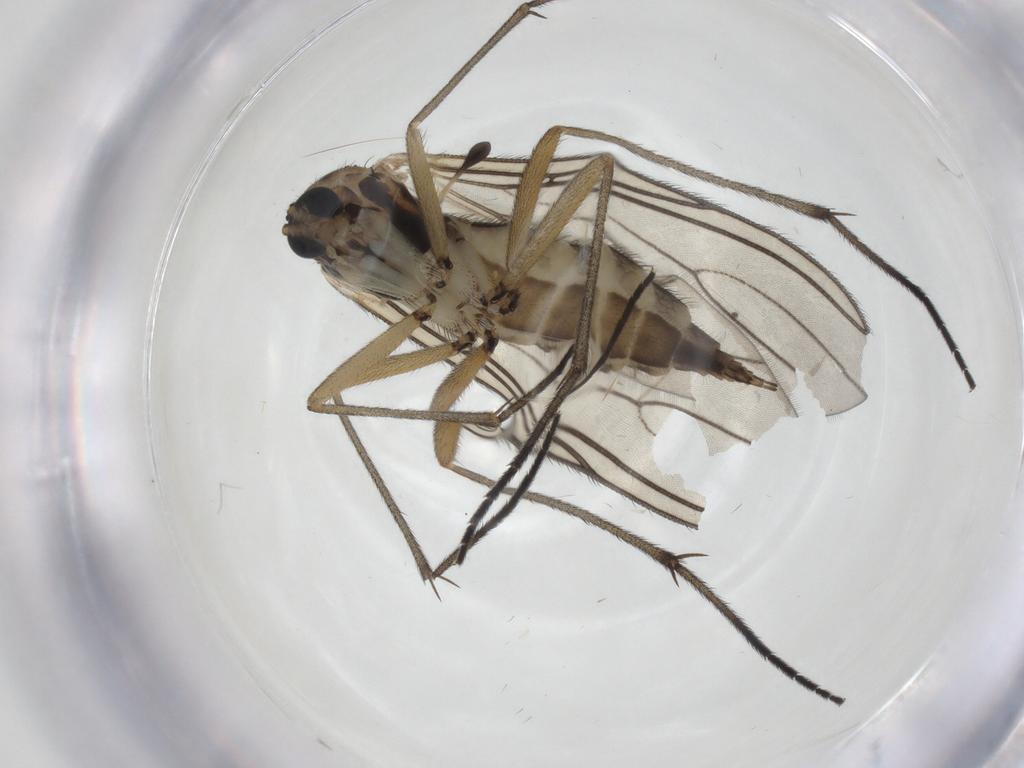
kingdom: Animalia
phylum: Arthropoda
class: Insecta
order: Diptera
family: Sciaridae
